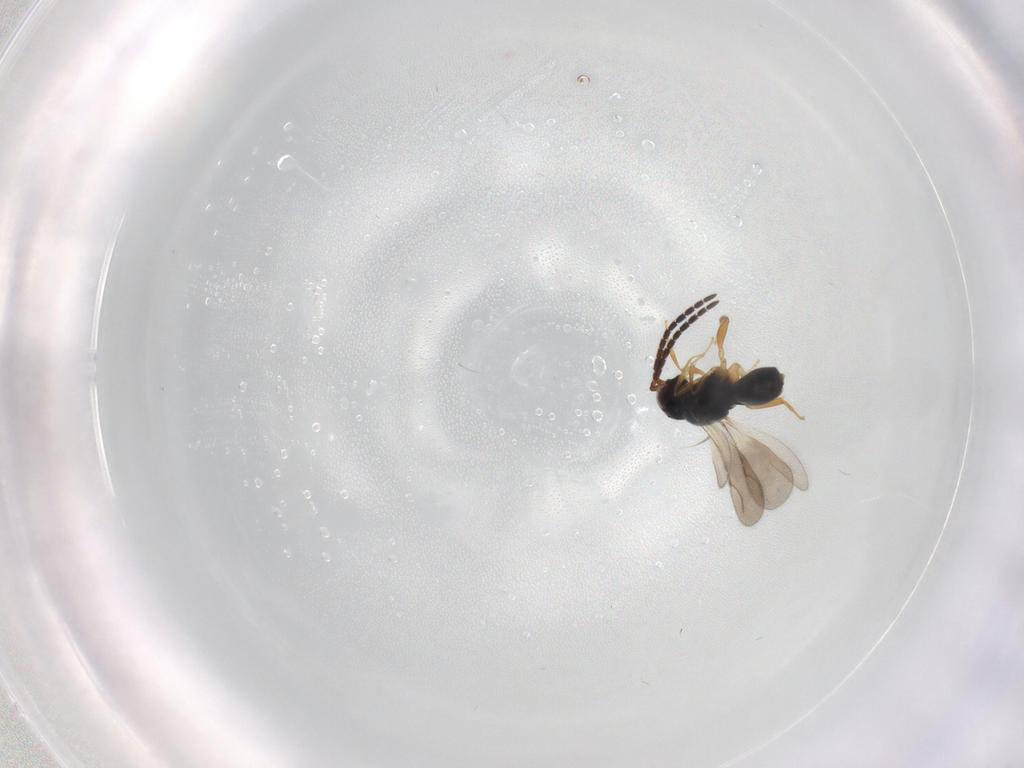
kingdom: Animalia
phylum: Arthropoda
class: Insecta
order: Hymenoptera
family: Ceraphronidae
